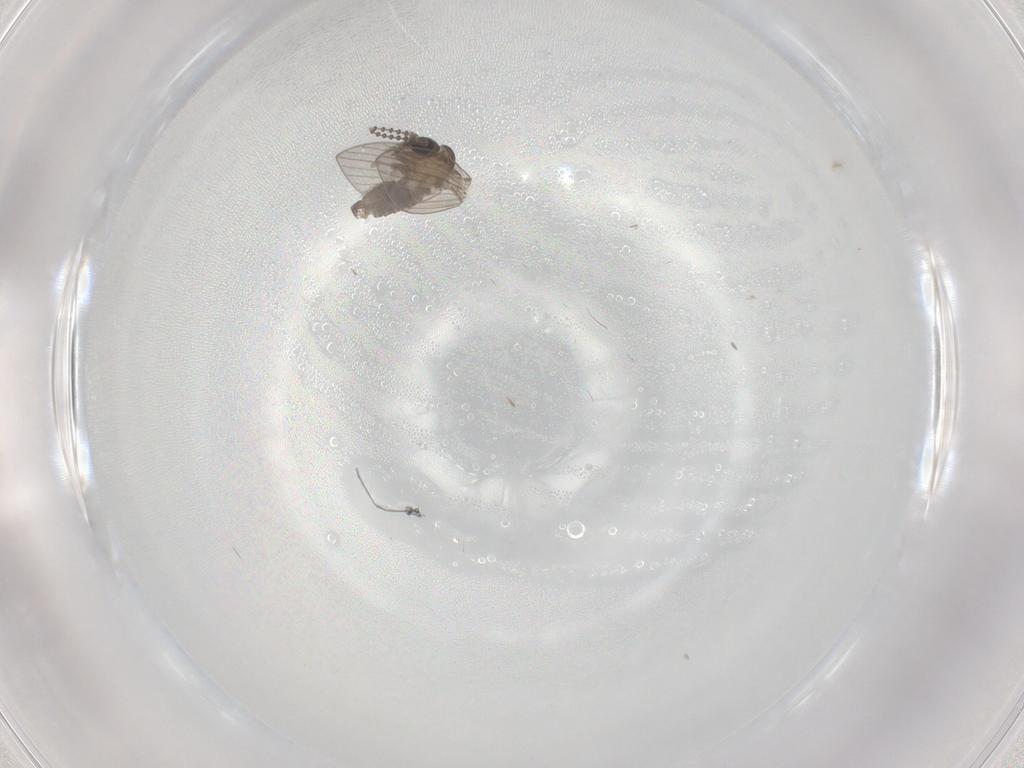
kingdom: Animalia
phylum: Arthropoda
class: Insecta
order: Diptera
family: Psychodidae
